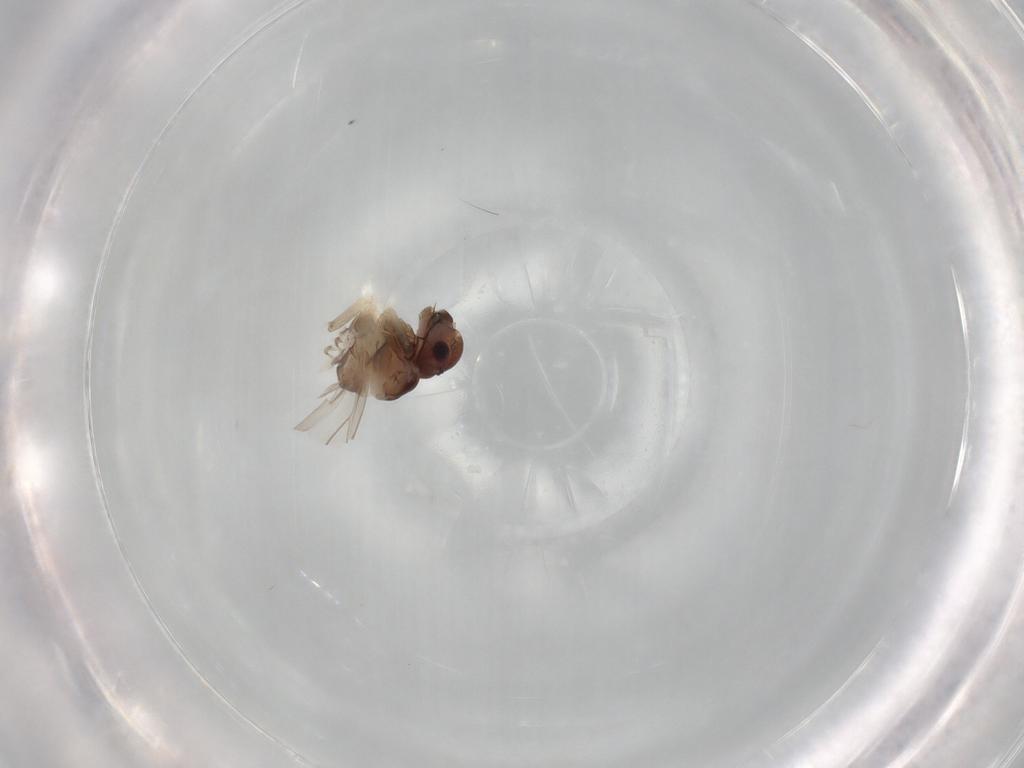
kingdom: Animalia
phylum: Arthropoda
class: Insecta
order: Psocodea
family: Peripsocidae
